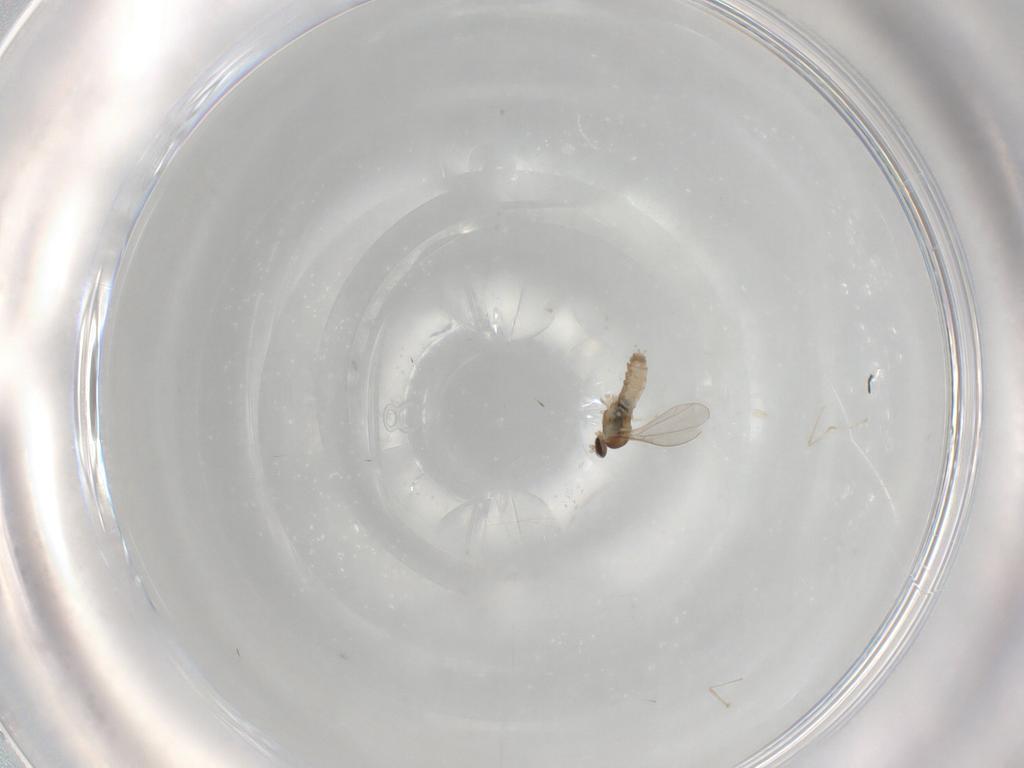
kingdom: Animalia
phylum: Arthropoda
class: Insecta
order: Diptera
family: Cecidomyiidae
